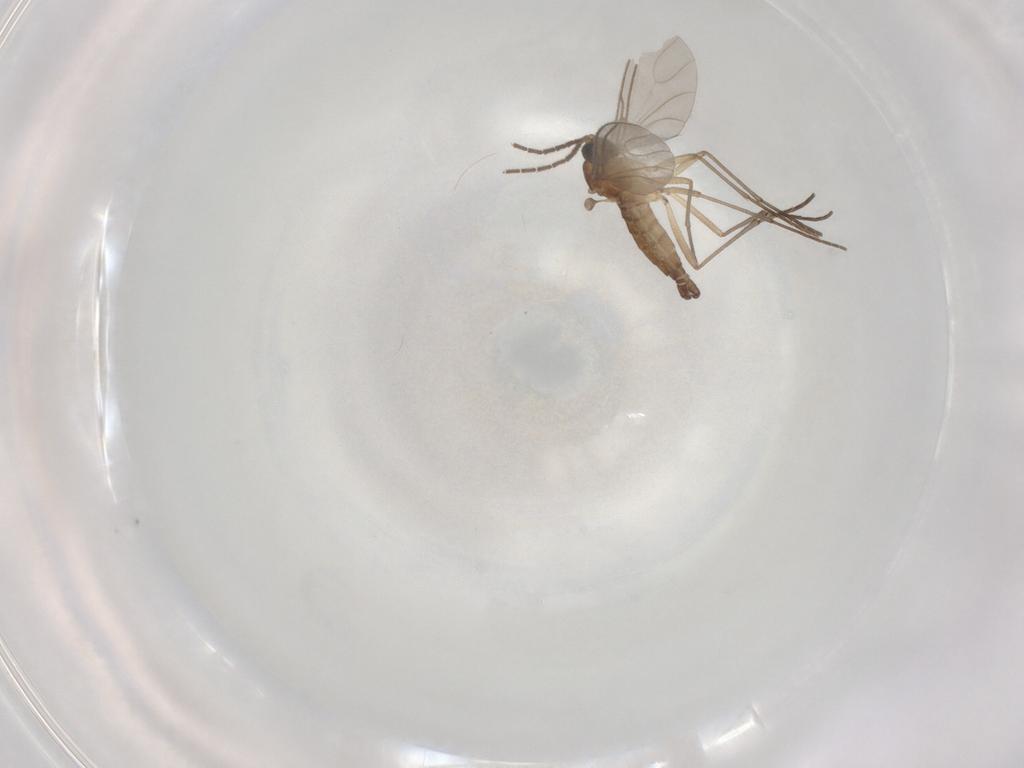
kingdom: Animalia
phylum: Arthropoda
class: Insecta
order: Diptera
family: Sciaridae
